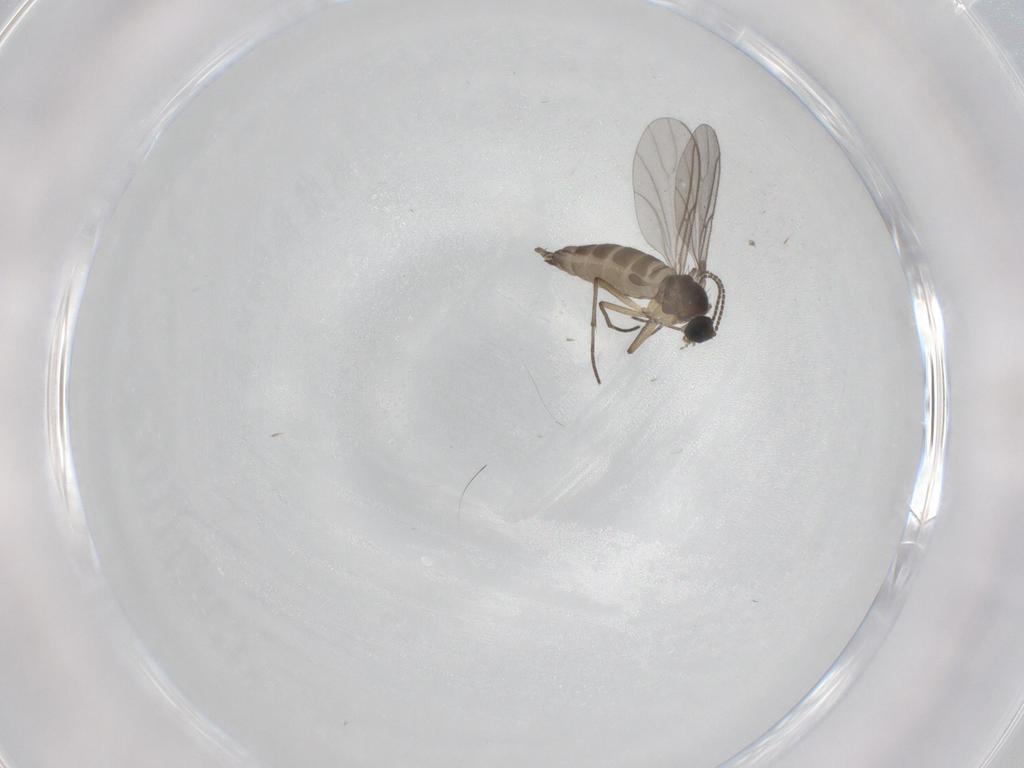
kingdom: Animalia
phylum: Arthropoda
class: Insecta
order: Diptera
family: Sciaridae
